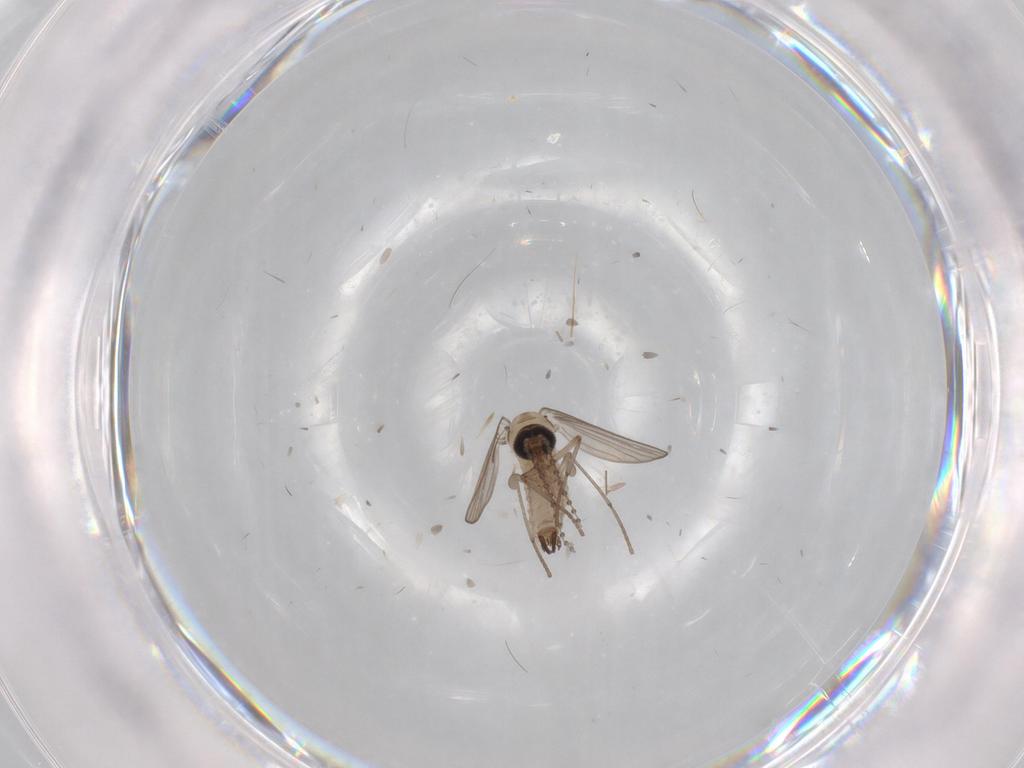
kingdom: Animalia
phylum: Arthropoda
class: Insecta
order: Diptera
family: Psychodidae
